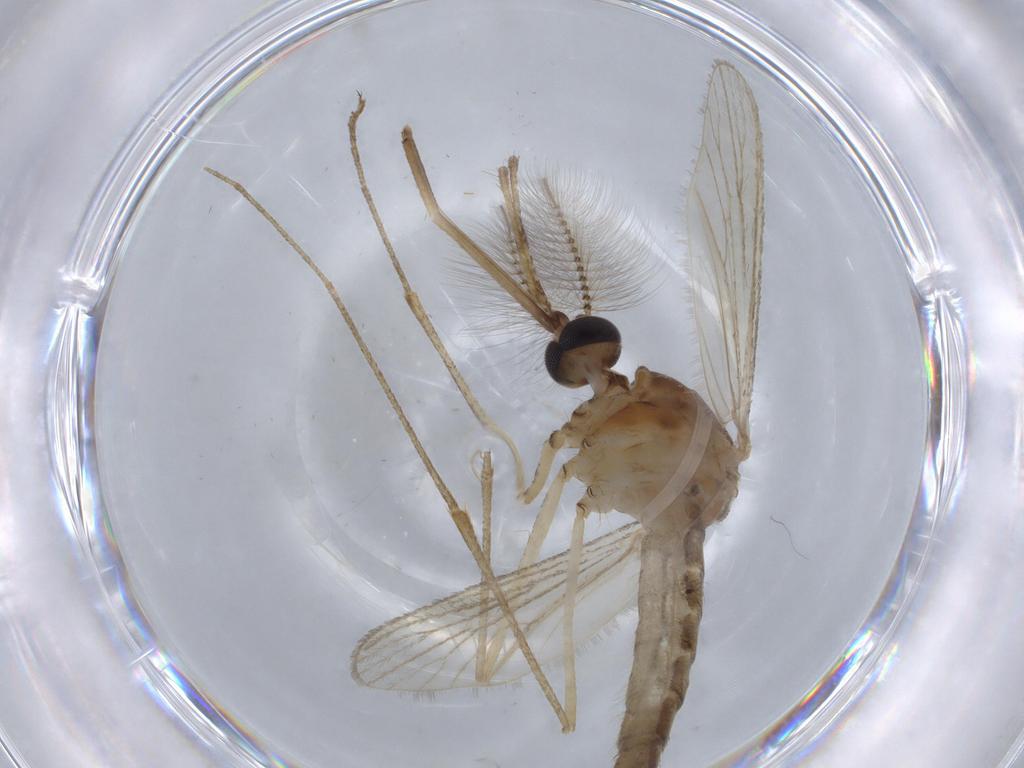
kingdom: Animalia
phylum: Arthropoda
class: Insecta
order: Diptera
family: Culicidae
